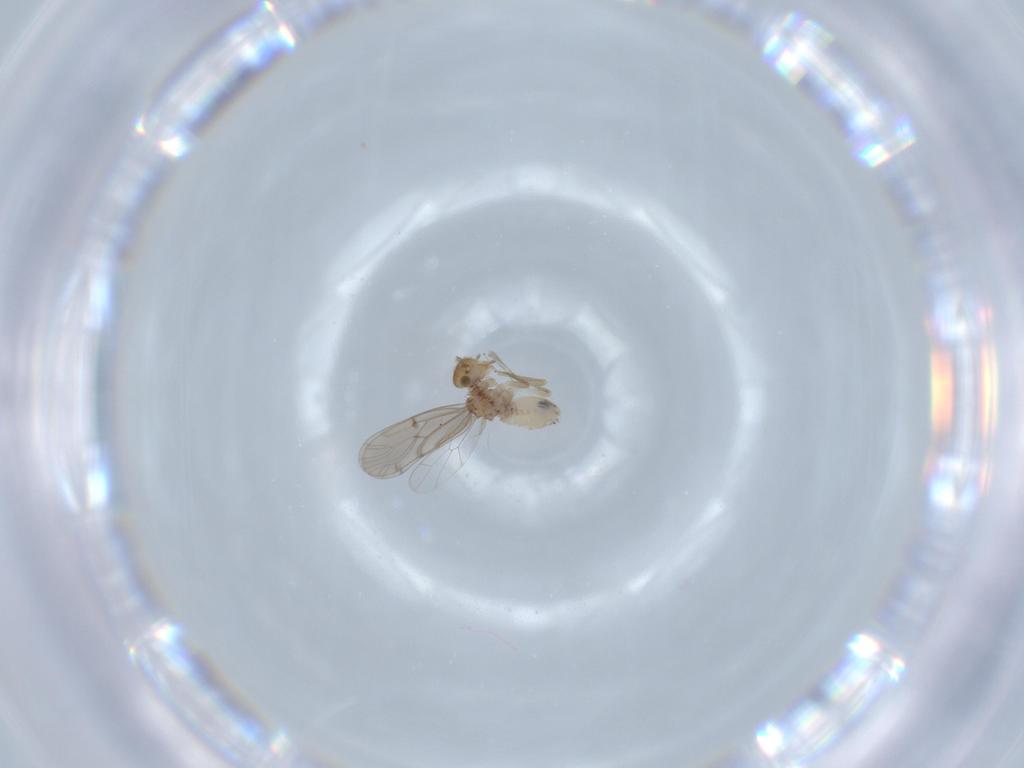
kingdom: Animalia
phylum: Arthropoda
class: Insecta
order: Psocodea
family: Ectopsocidae
